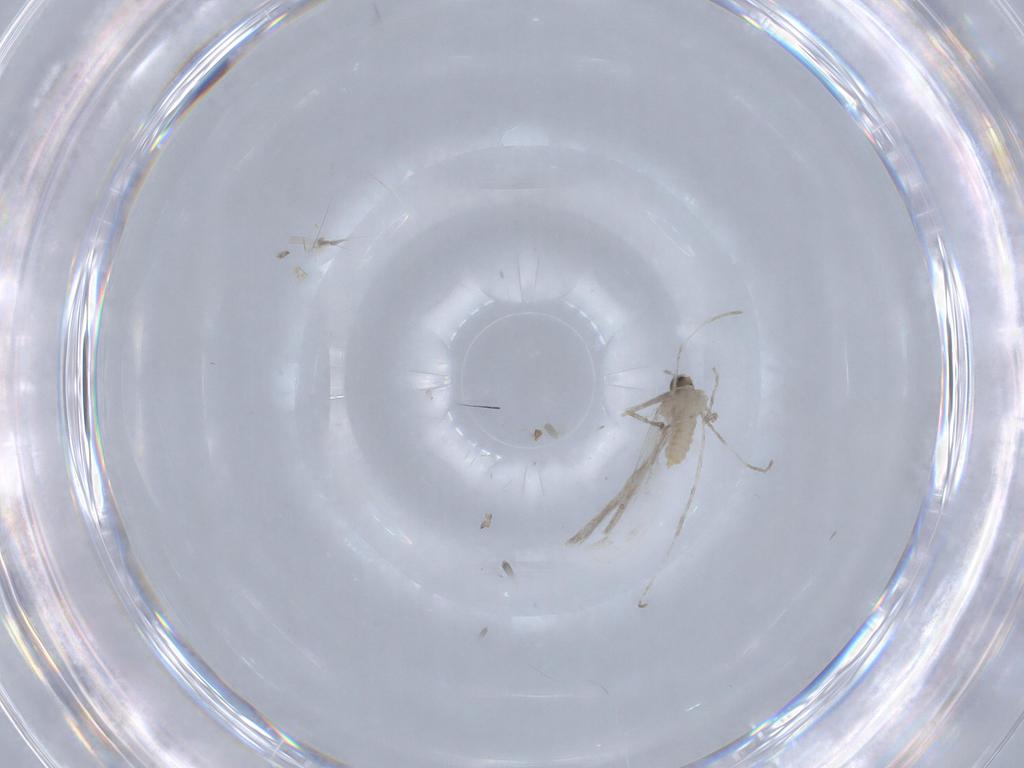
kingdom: Animalia
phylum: Arthropoda
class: Insecta
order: Diptera
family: Cecidomyiidae
